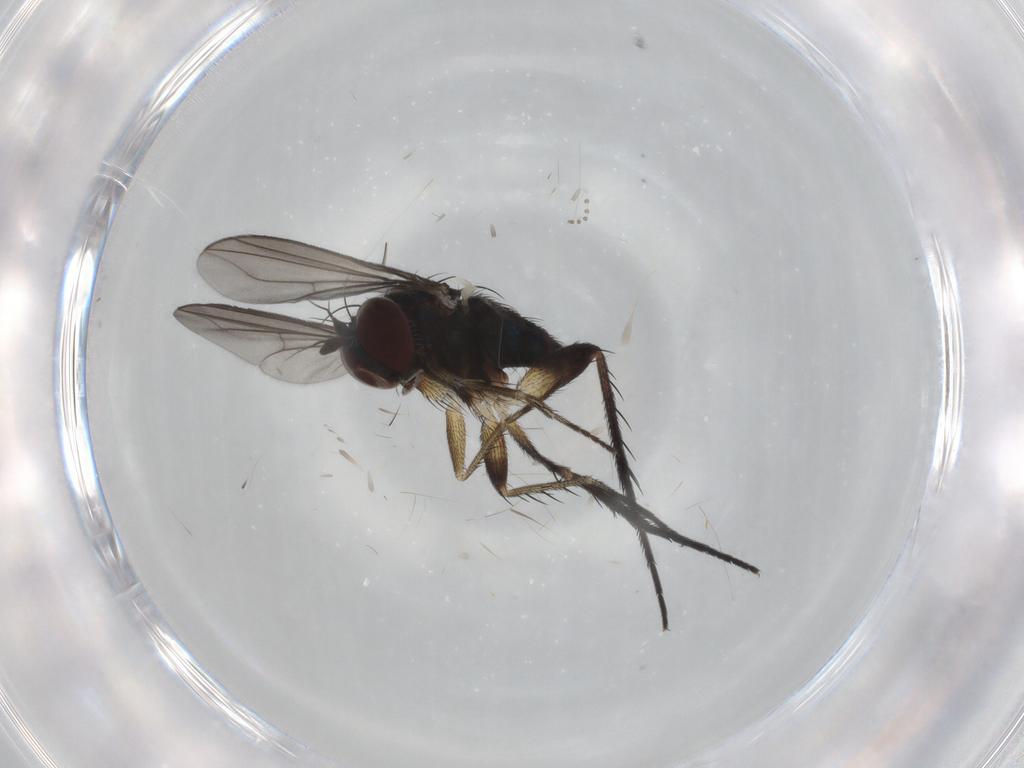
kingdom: Animalia
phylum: Arthropoda
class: Insecta
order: Diptera
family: Dolichopodidae
